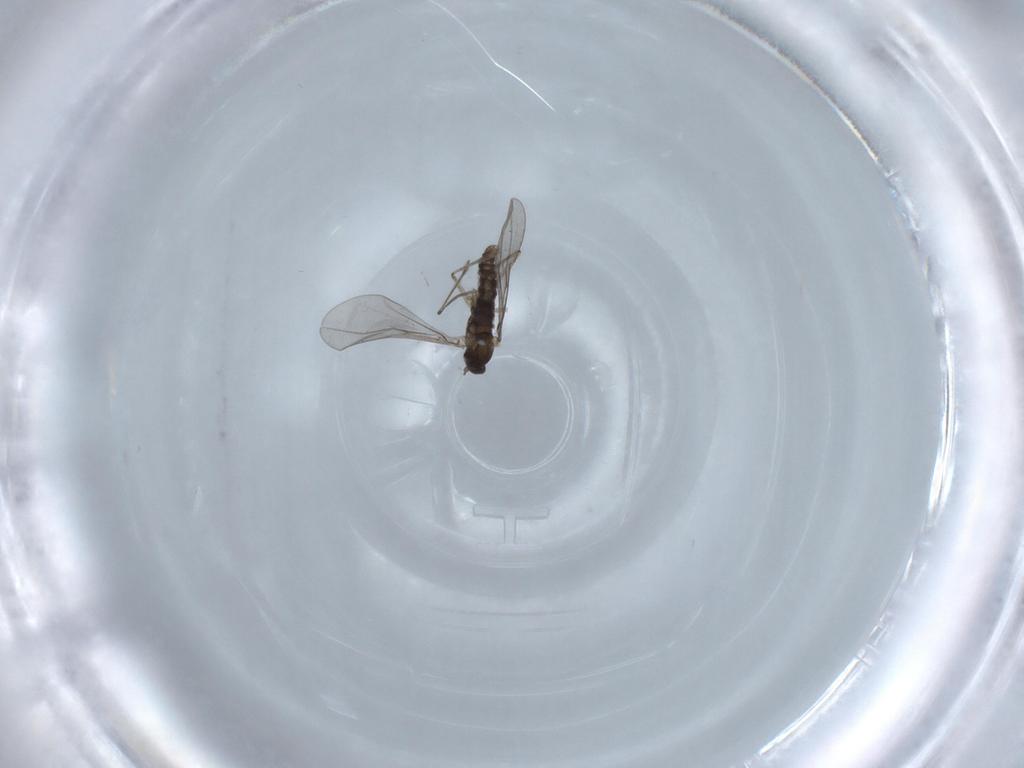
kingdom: Animalia
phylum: Arthropoda
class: Insecta
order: Diptera
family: Cecidomyiidae
